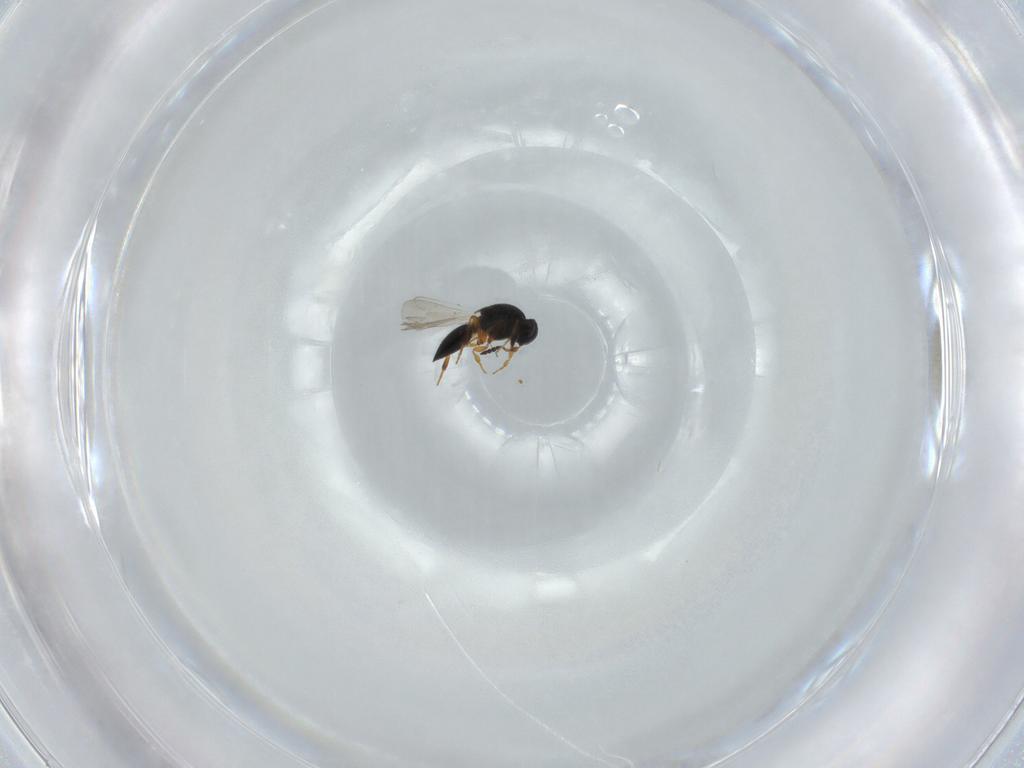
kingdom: Animalia
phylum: Arthropoda
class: Insecta
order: Hymenoptera
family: Platygastridae
